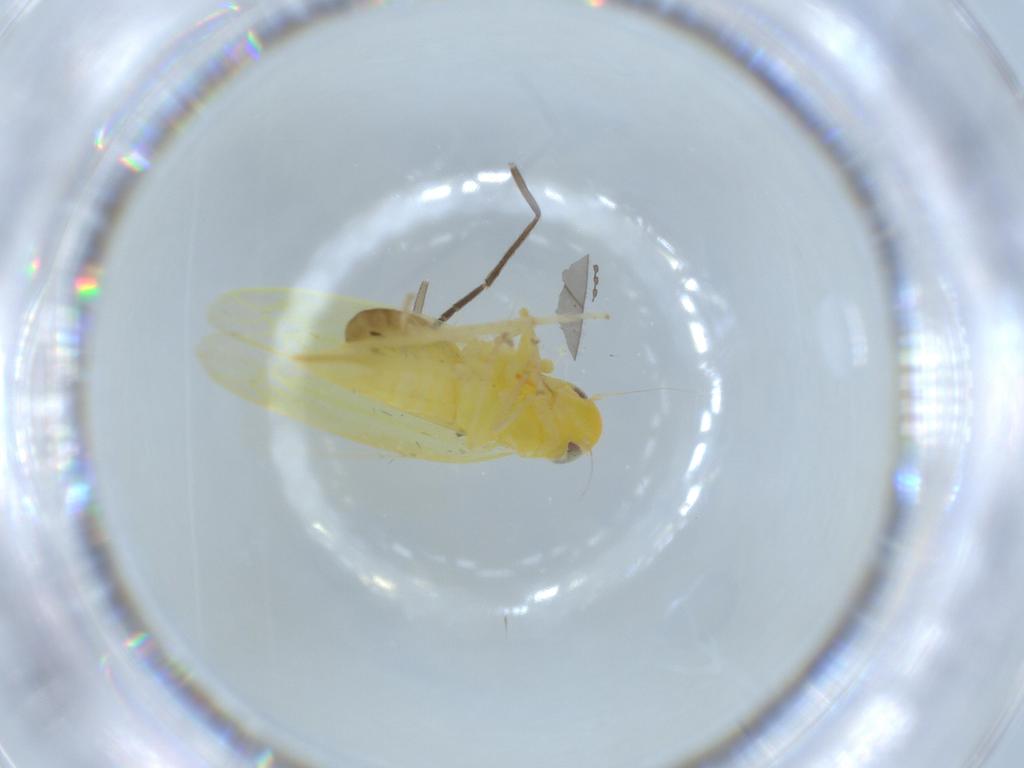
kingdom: Animalia
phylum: Arthropoda
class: Insecta
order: Hemiptera
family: Cicadellidae
